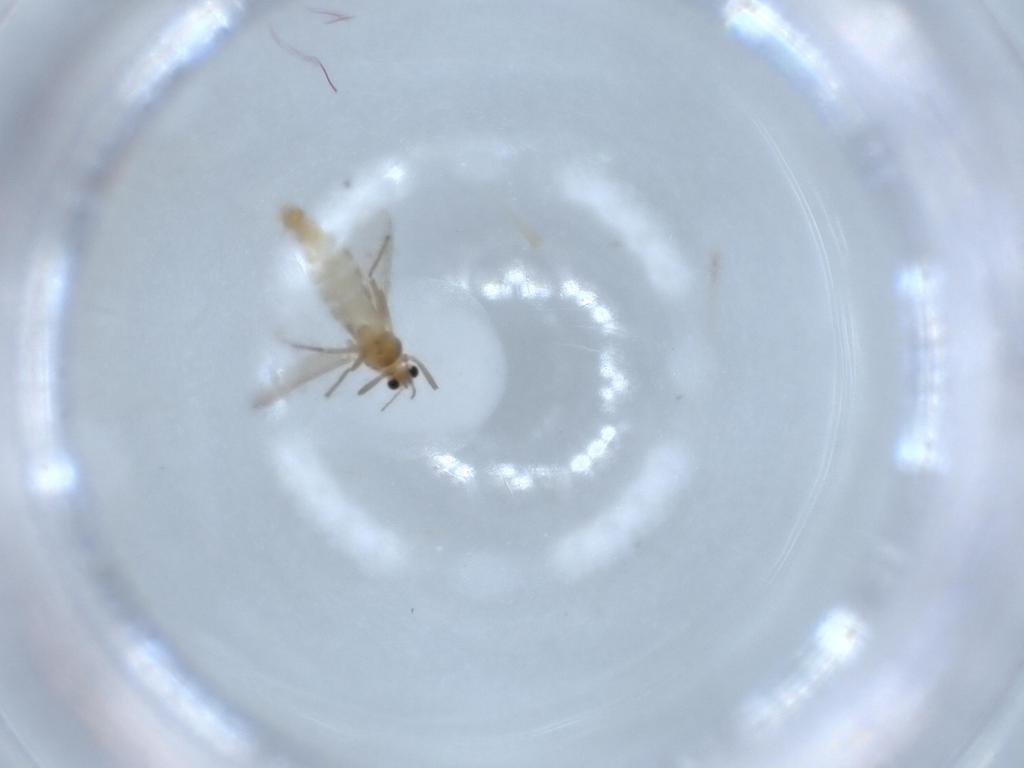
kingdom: Animalia
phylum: Arthropoda
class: Insecta
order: Diptera
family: Chironomidae
